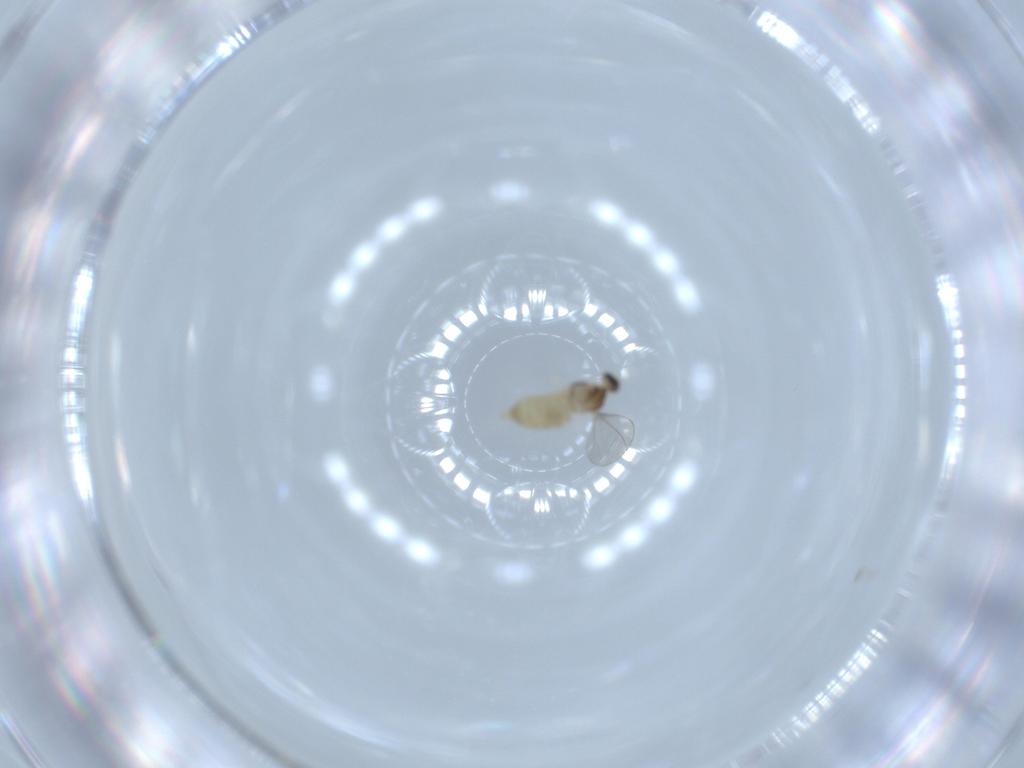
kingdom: Animalia
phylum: Arthropoda
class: Insecta
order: Diptera
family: Cecidomyiidae
